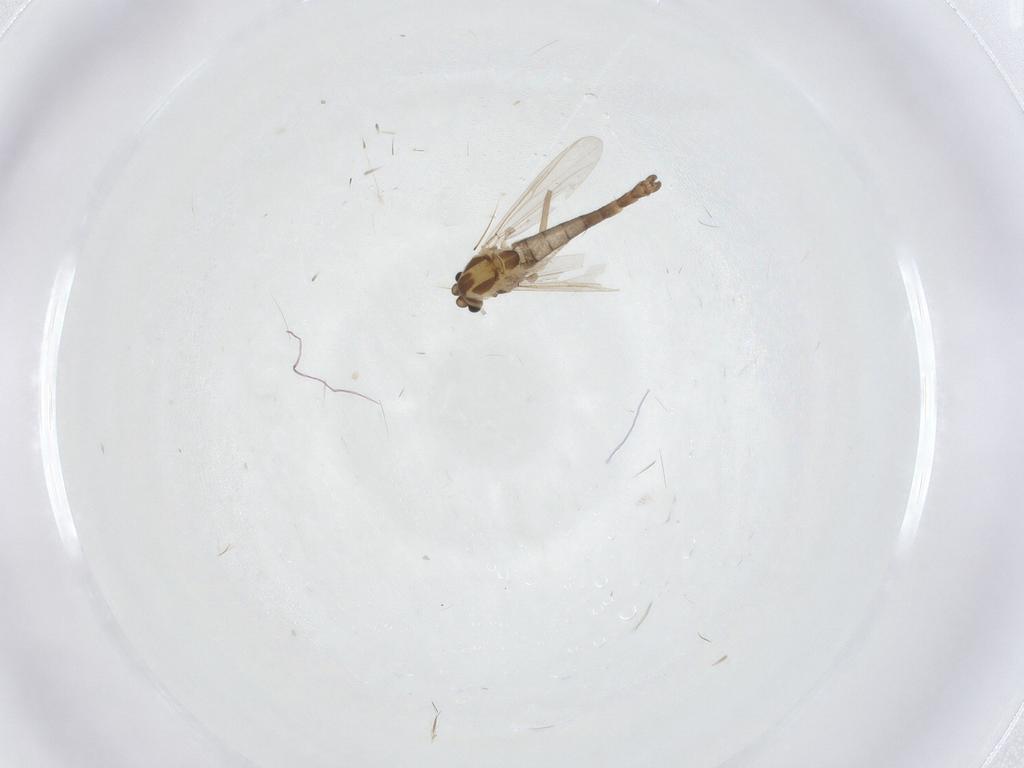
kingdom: Animalia
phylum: Arthropoda
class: Insecta
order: Diptera
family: Chironomidae
